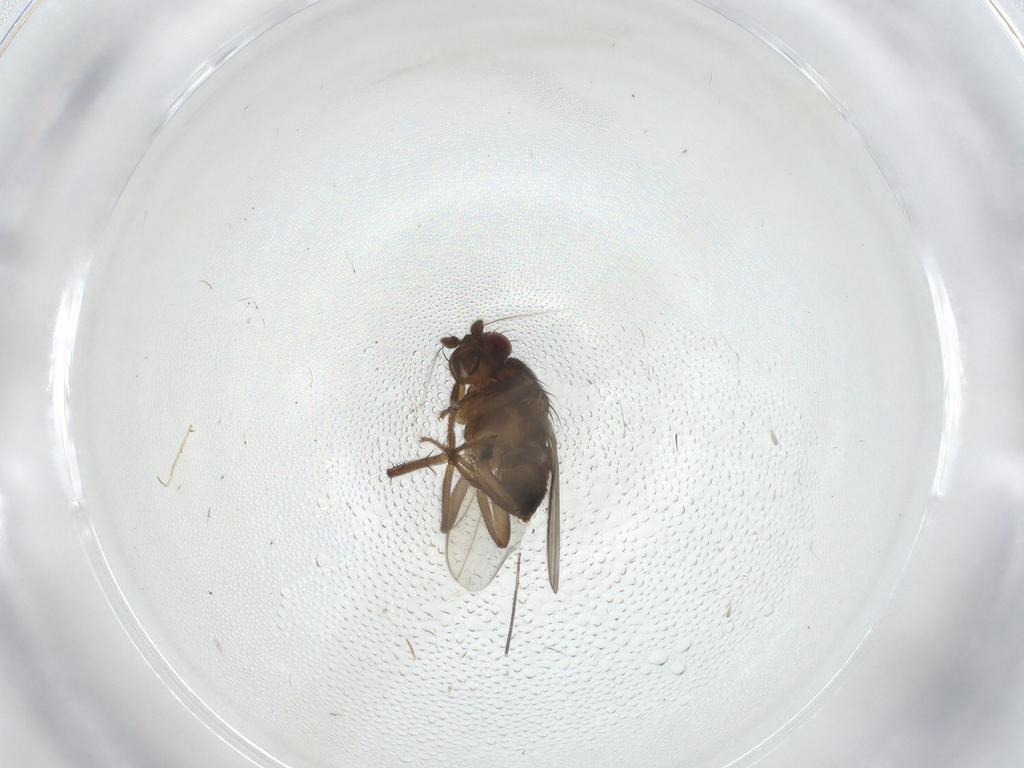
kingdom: Animalia
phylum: Arthropoda
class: Insecta
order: Diptera
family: Sphaeroceridae
